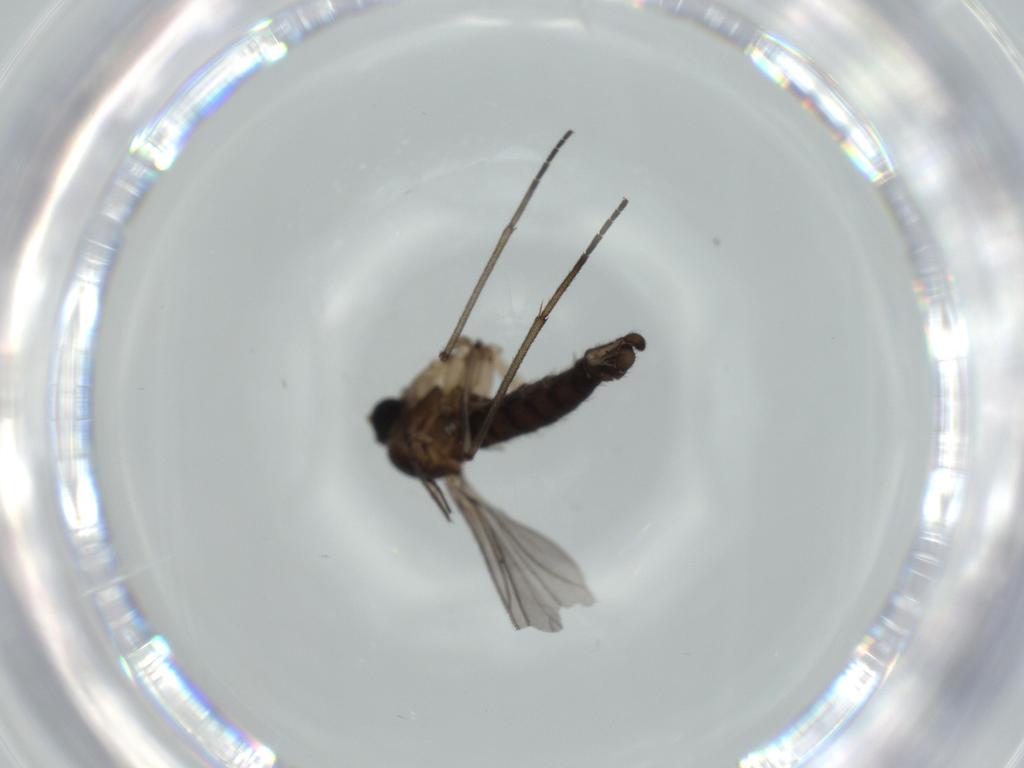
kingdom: Animalia
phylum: Arthropoda
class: Insecta
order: Diptera
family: Sciaridae
